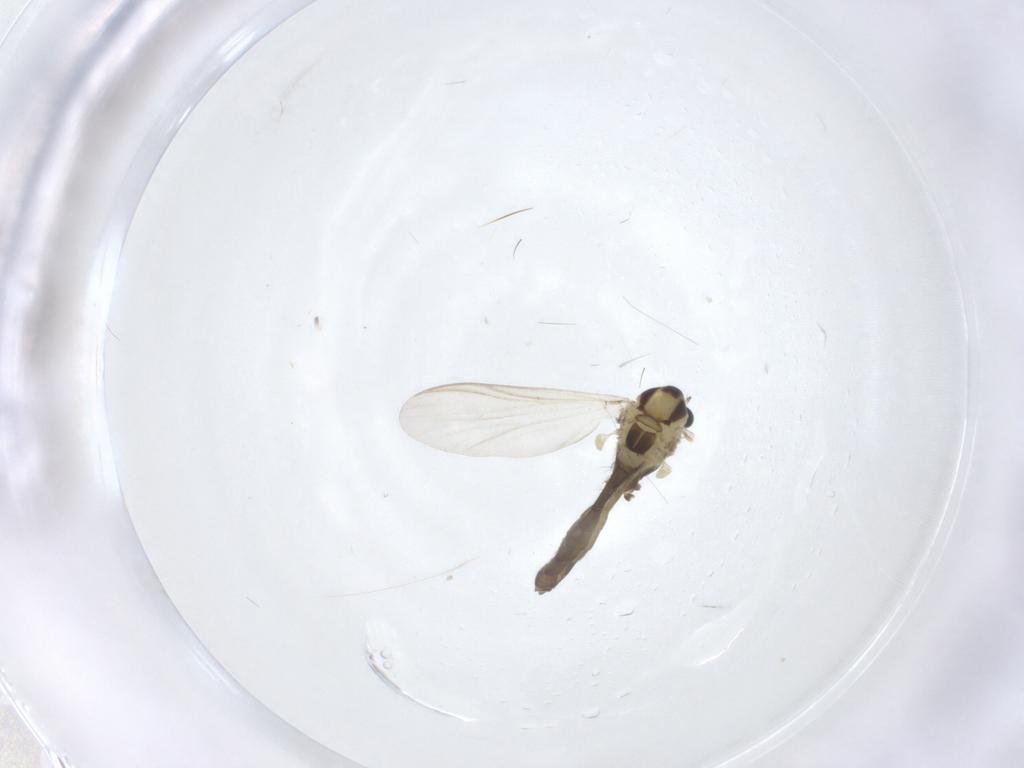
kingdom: Animalia
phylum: Arthropoda
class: Insecta
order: Diptera
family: Chironomidae
